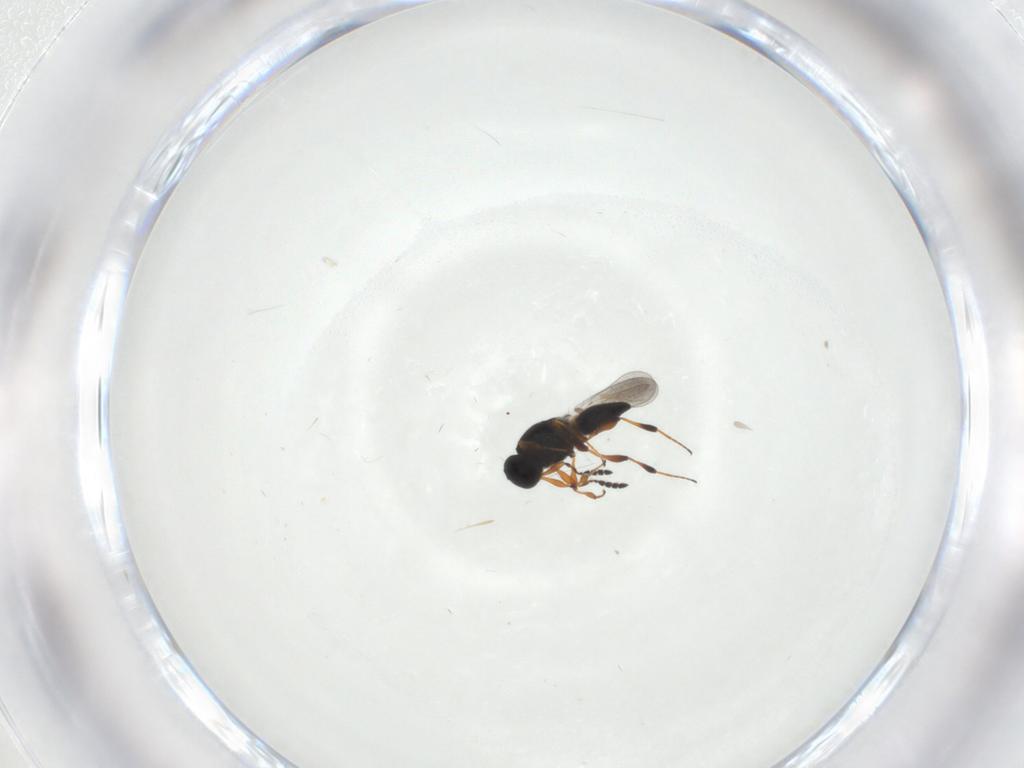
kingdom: Animalia
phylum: Arthropoda
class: Insecta
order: Hymenoptera
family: Platygastridae
